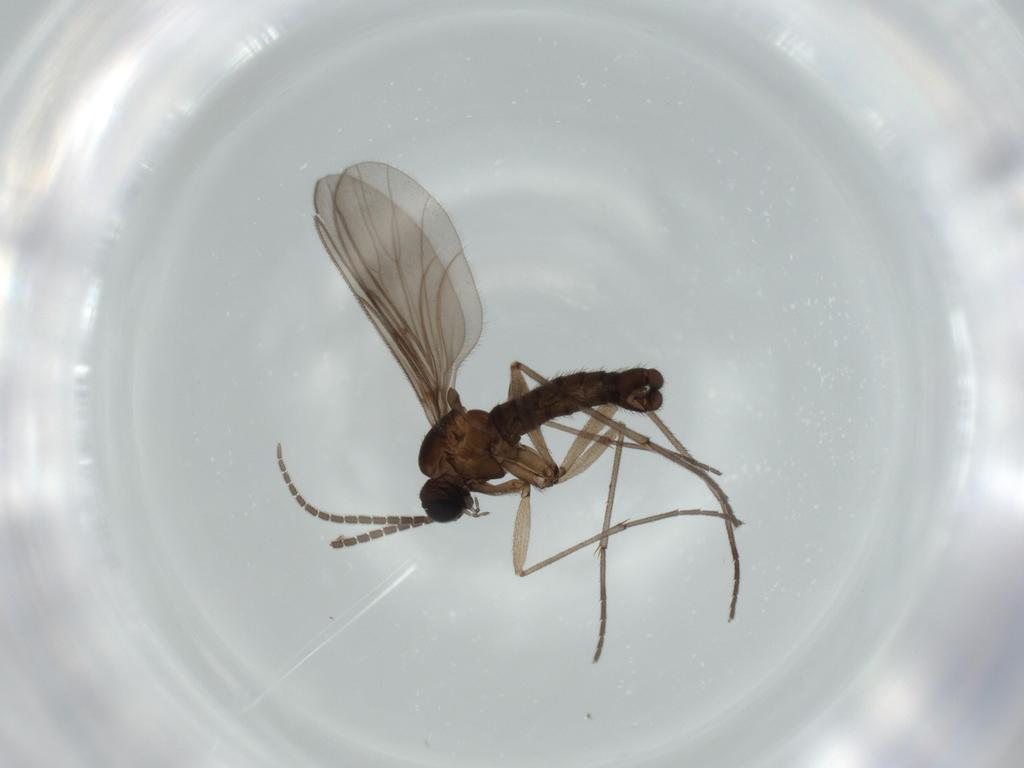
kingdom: Animalia
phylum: Arthropoda
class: Insecta
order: Diptera
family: Sciaridae
